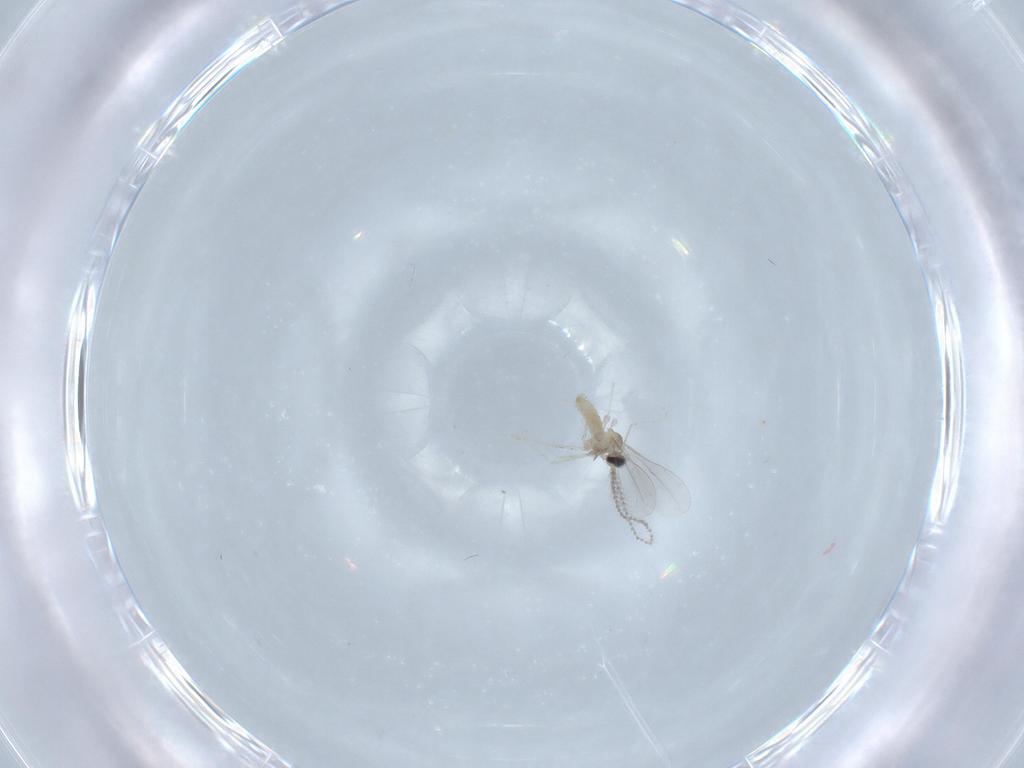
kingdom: Animalia
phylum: Arthropoda
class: Insecta
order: Diptera
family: Cecidomyiidae
